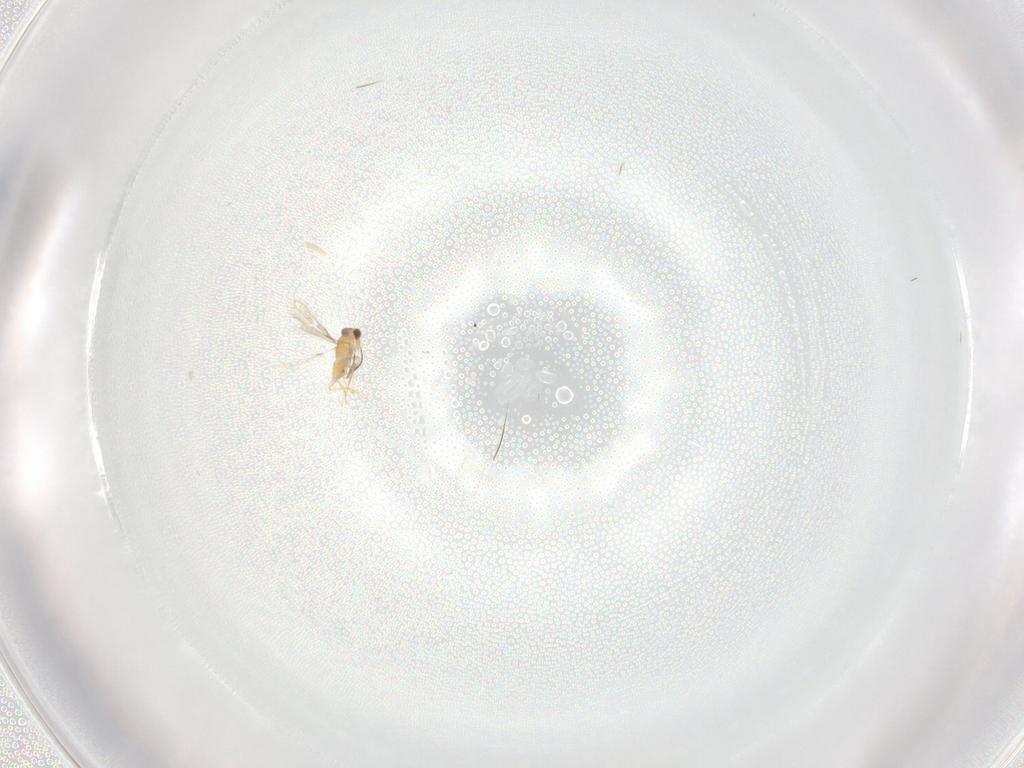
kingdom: Animalia
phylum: Arthropoda
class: Insecta
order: Hymenoptera
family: Mymaridae
